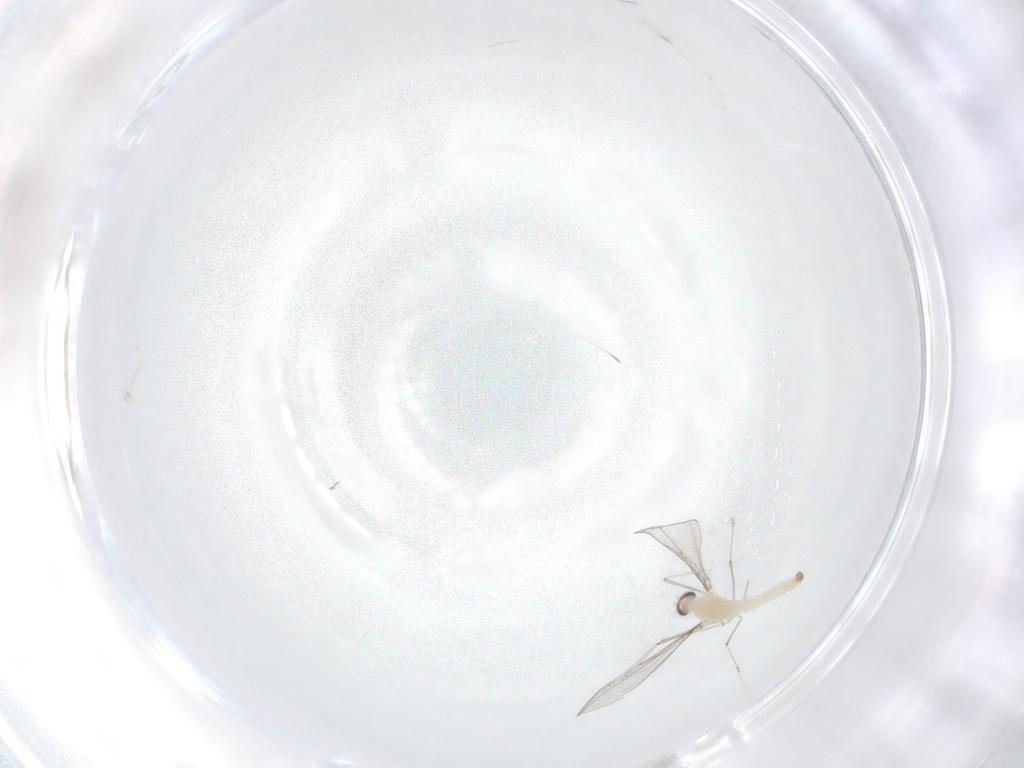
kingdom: Animalia
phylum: Arthropoda
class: Insecta
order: Diptera
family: Cecidomyiidae
